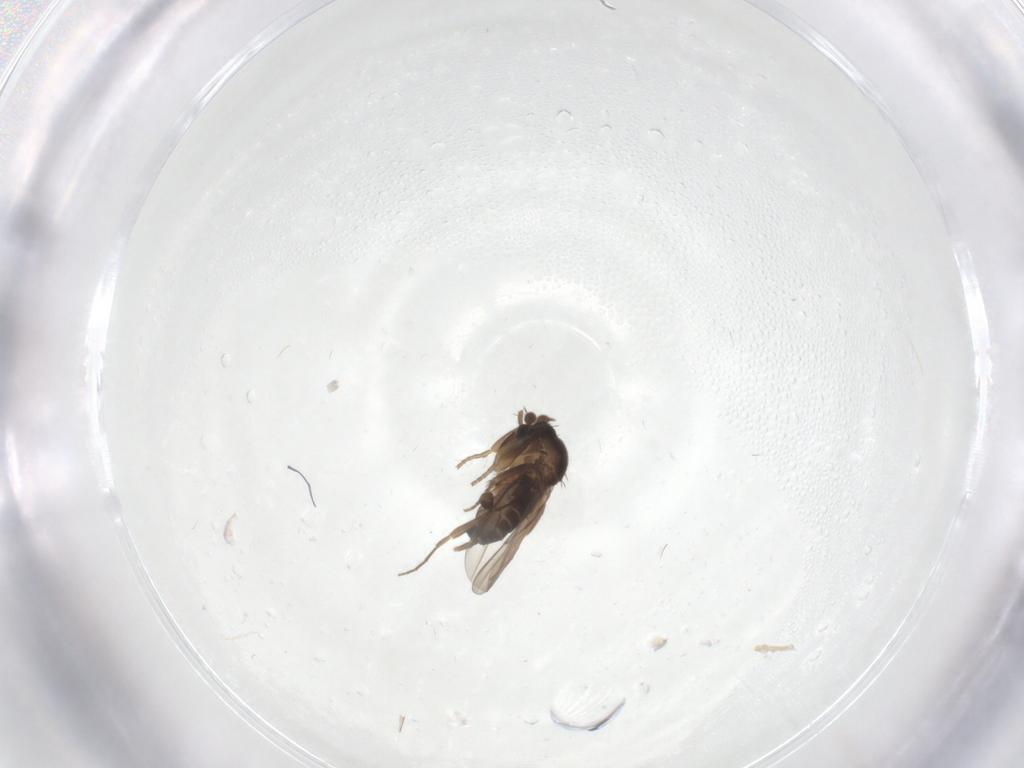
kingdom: Animalia
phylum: Arthropoda
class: Insecta
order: Diptera
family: Phoridae
